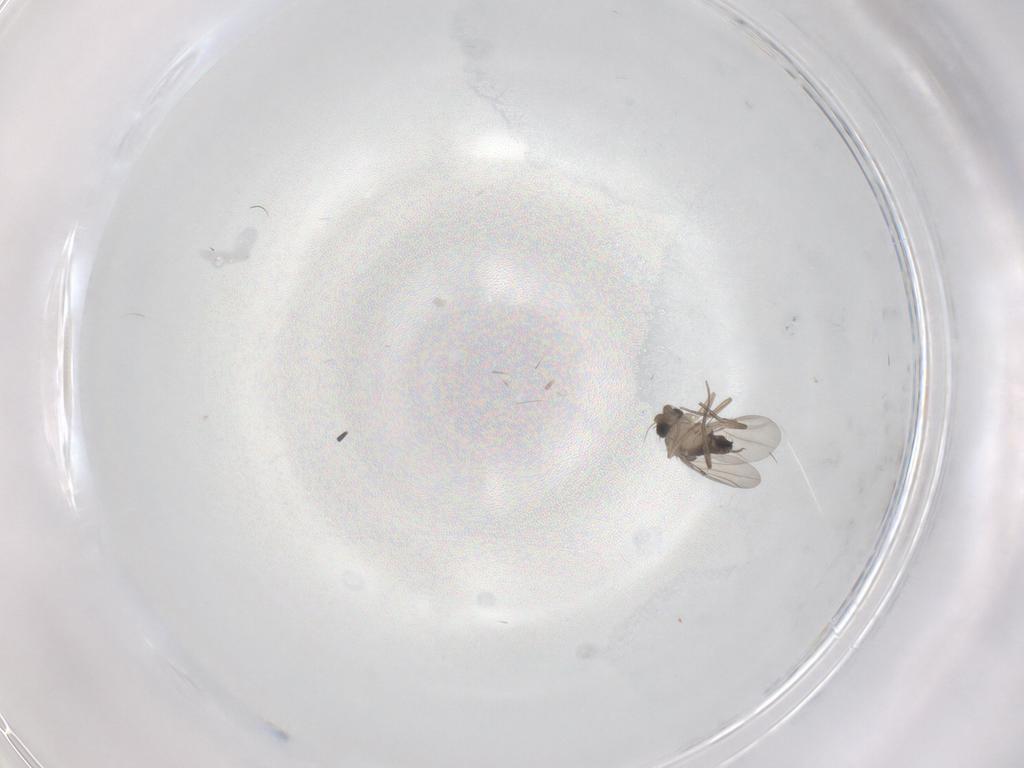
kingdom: Animalia
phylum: Arthropoda
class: Insecta
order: Diptera
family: Phoridae
